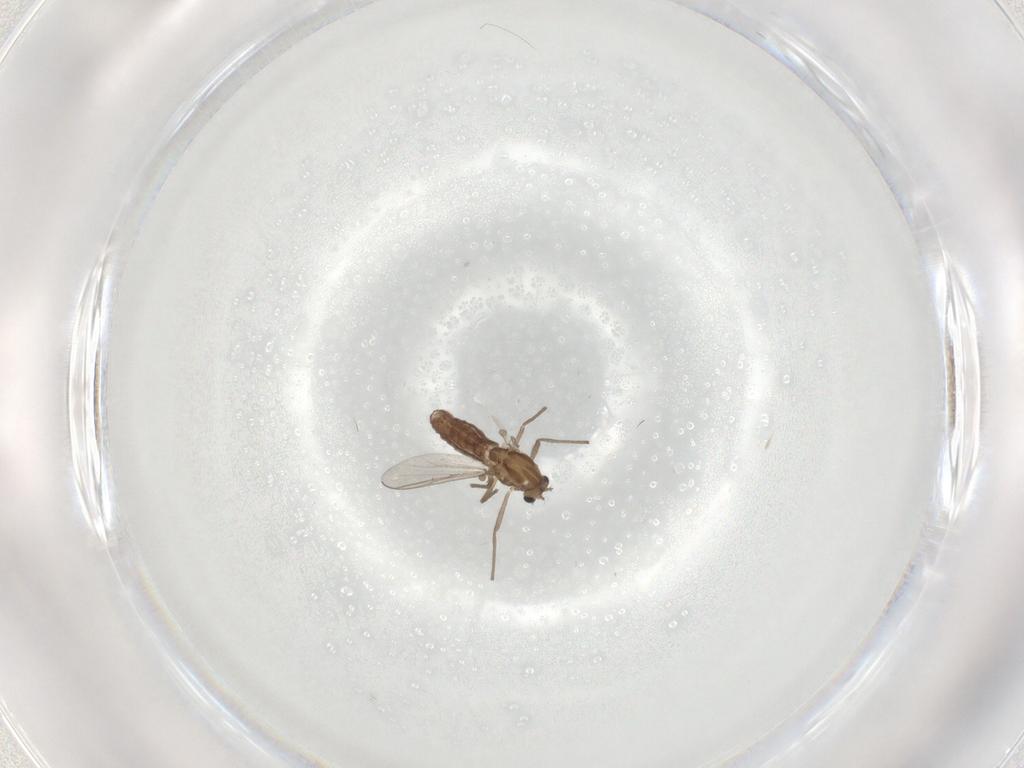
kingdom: Animalia
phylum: Arthropoda
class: Insecta
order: Diptera
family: Chironomidae
